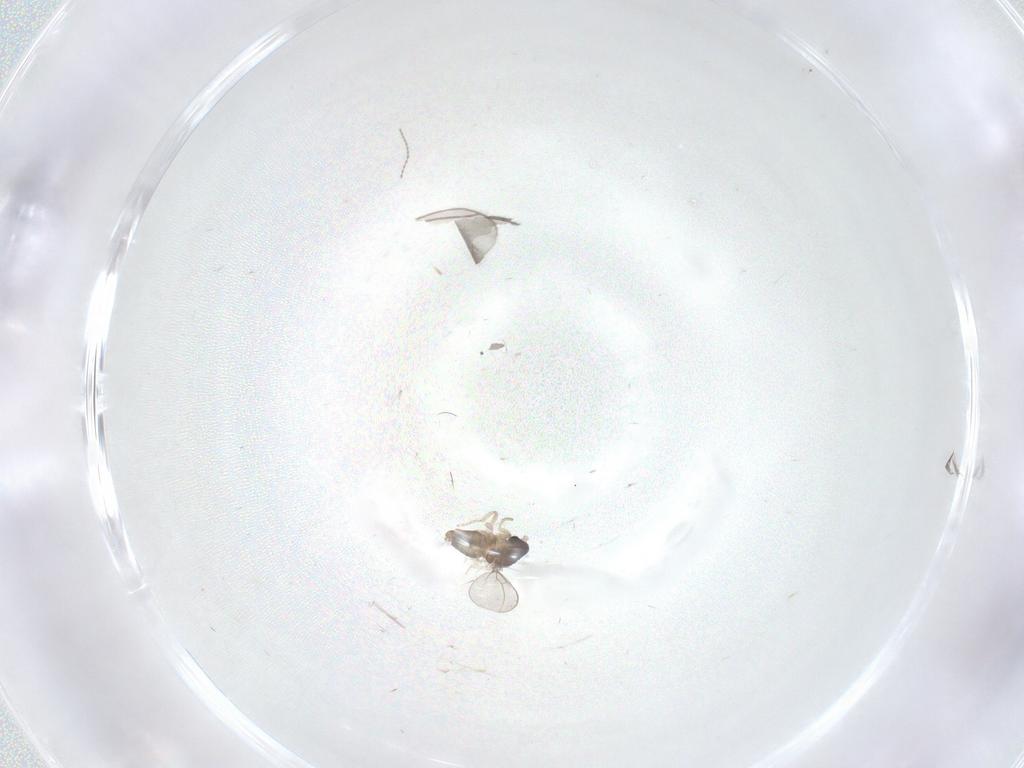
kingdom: Animalia
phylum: Arthropoda
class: Insecta
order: Diptera
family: Cecidomyiidae
